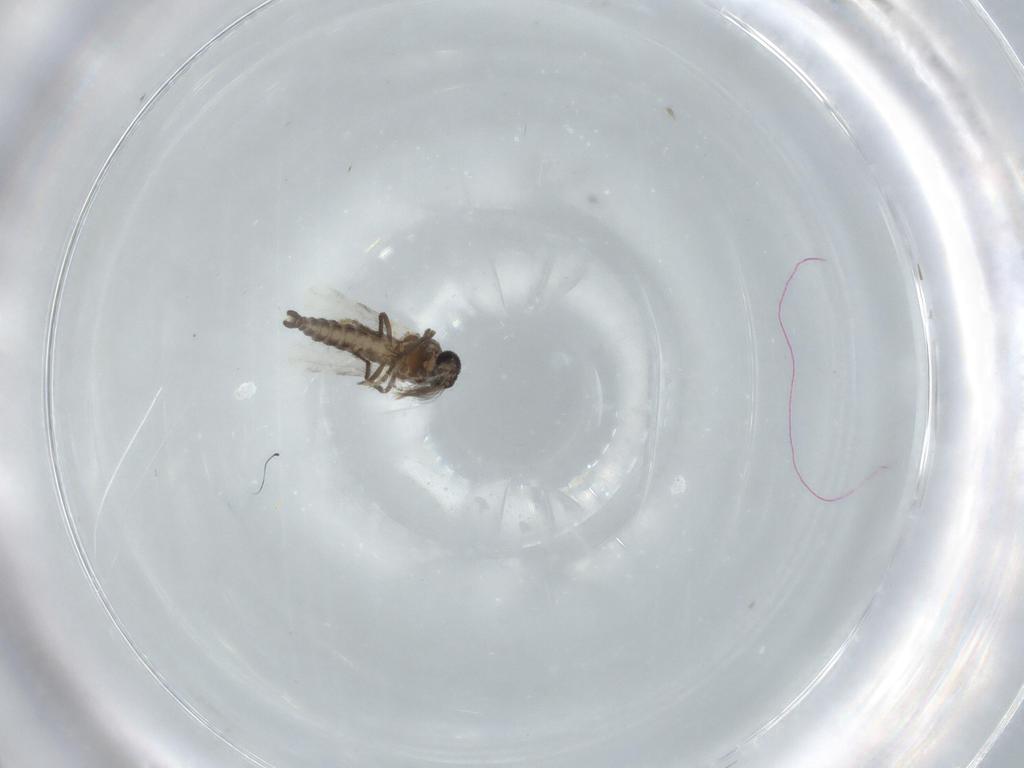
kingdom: Animalia
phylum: Arthropoda
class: Insecta
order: Diptera
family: Ceratopogonidae
